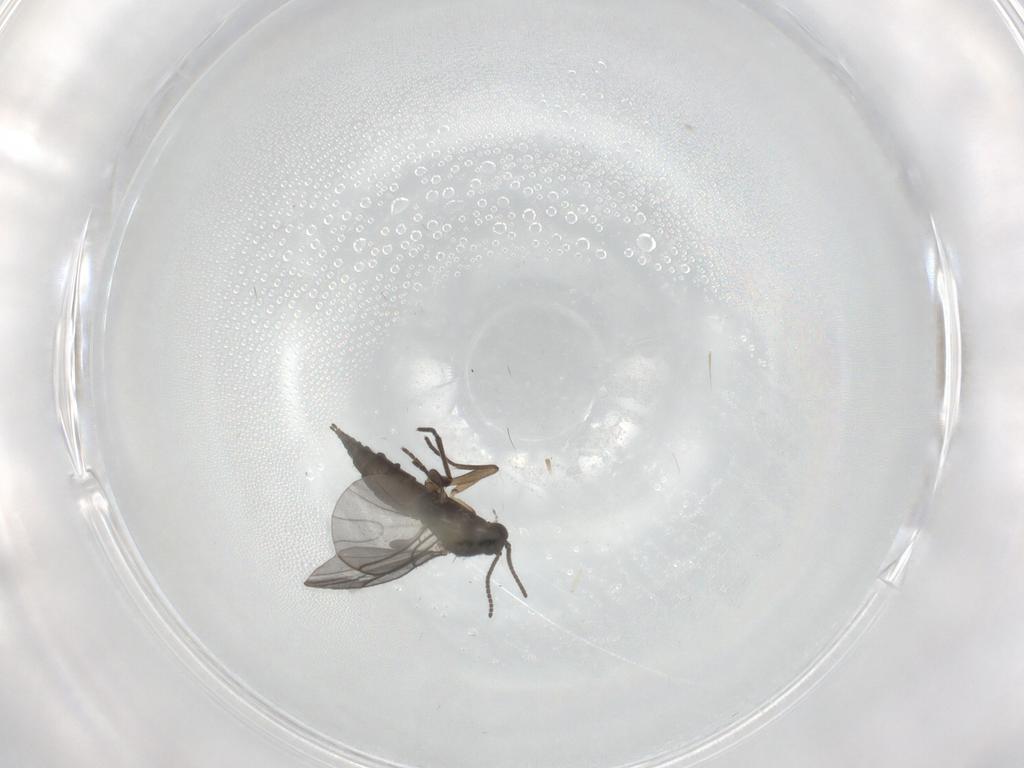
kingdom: Animalia
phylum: Arthropoda
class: Insecta
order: Diptera
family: Sciaridae
